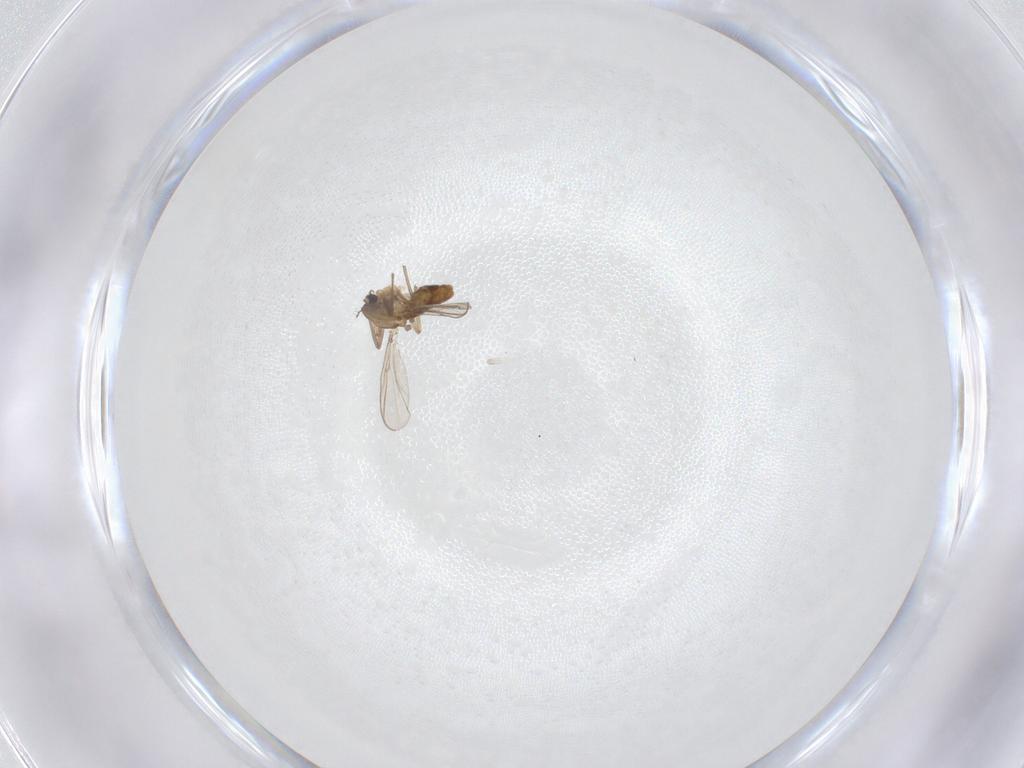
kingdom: Animalia
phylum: Arthropoda
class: Insecta
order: Diptera
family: Chironomidae
